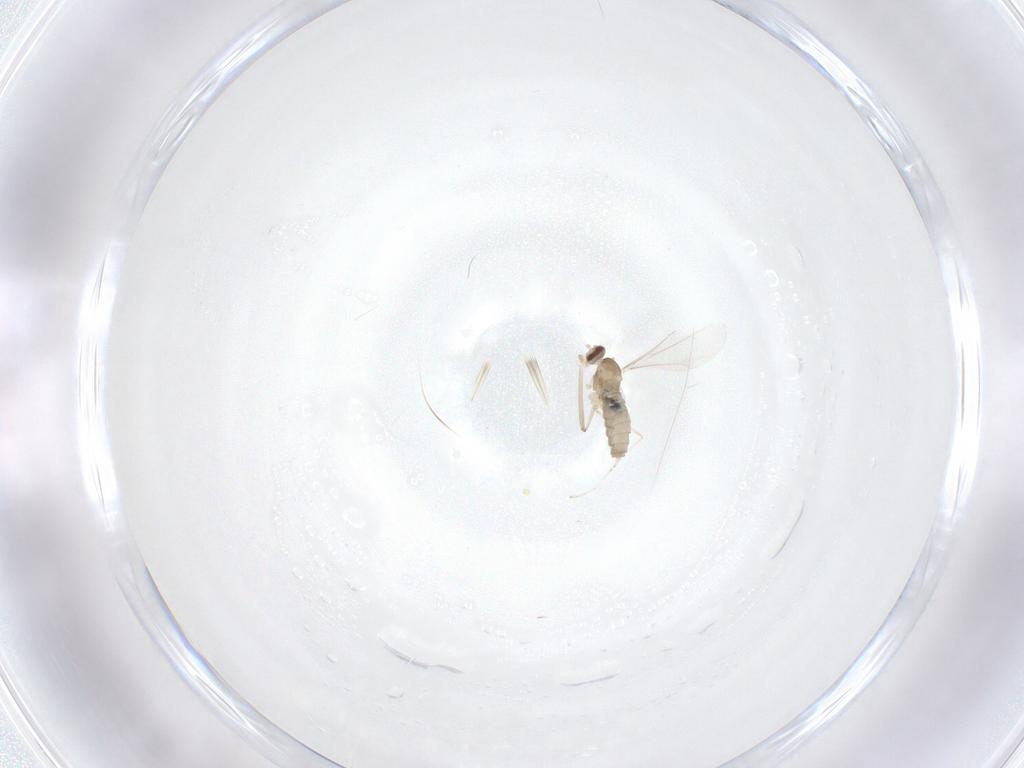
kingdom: Animalia
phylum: Arthropoda
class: Insecta
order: Diptera
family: Cecidomyiidae
